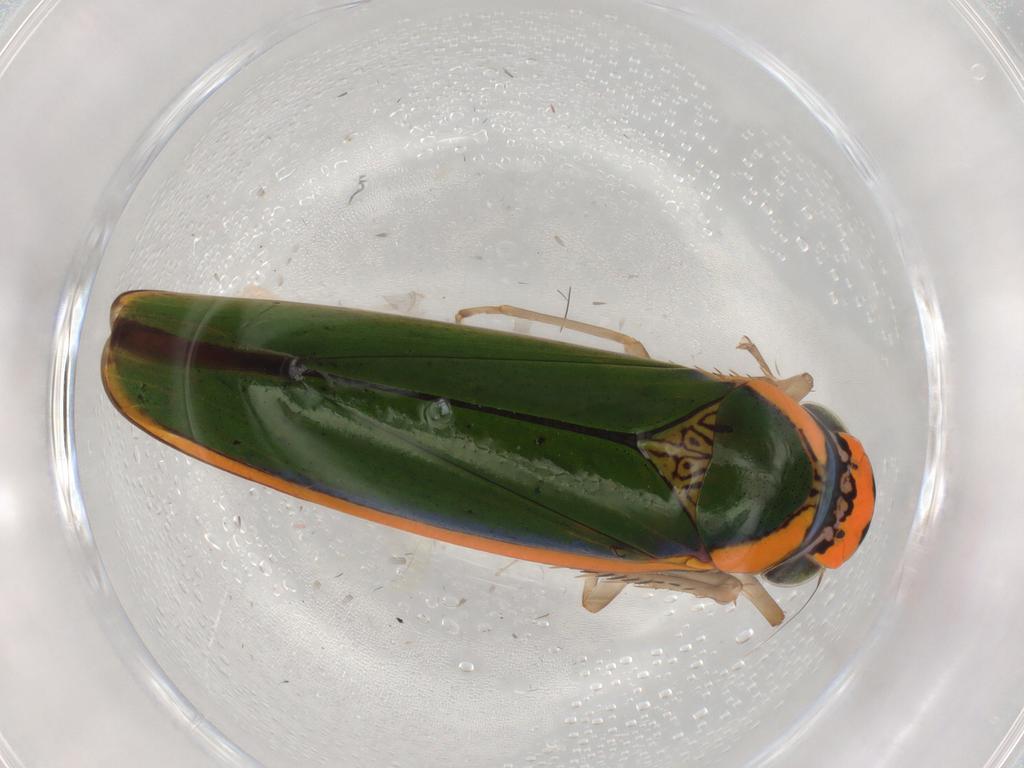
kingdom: Animalia
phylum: Arthropoda
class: Insecta
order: Hemiptera
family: Cicadellidae
